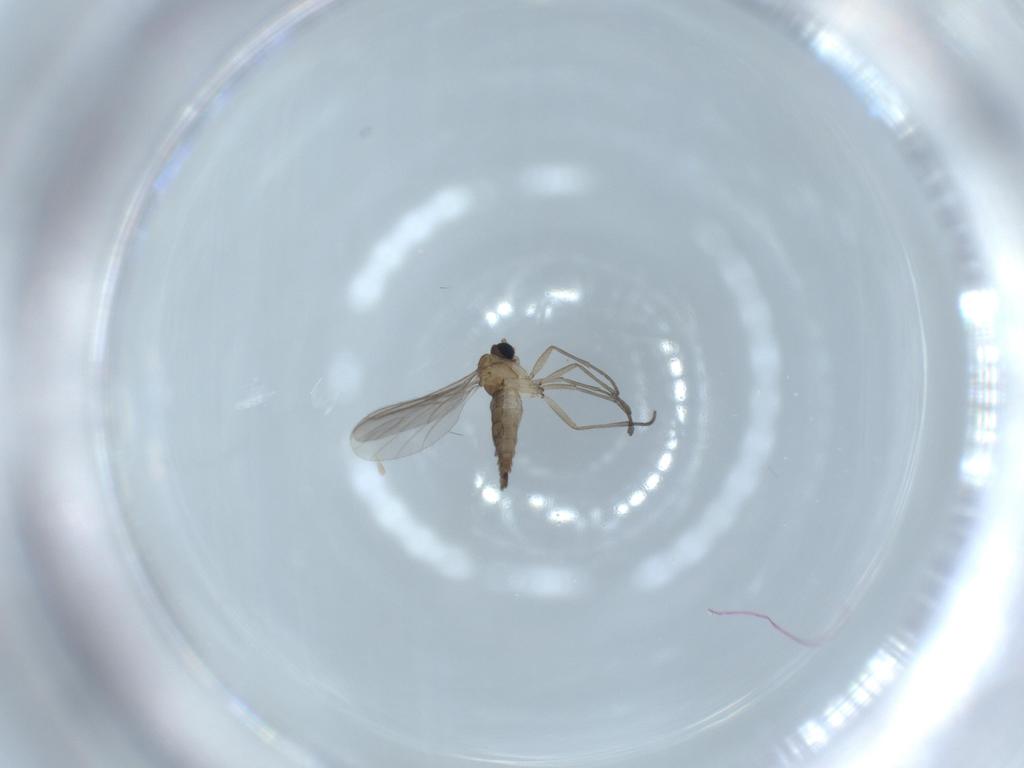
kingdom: Animalia
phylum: Arthropoda
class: Insecta
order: Diptera
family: Sciaridae
